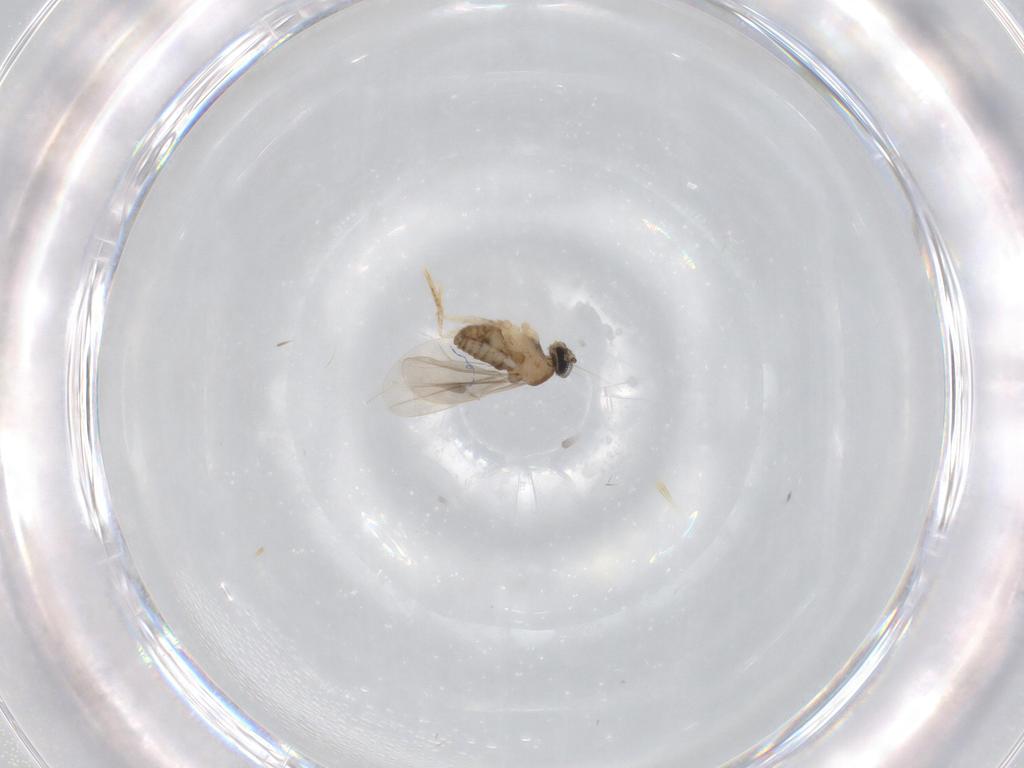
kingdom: Animalia
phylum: Arthropoda
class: Insecta
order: Diptera
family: Cecidomyiidae
